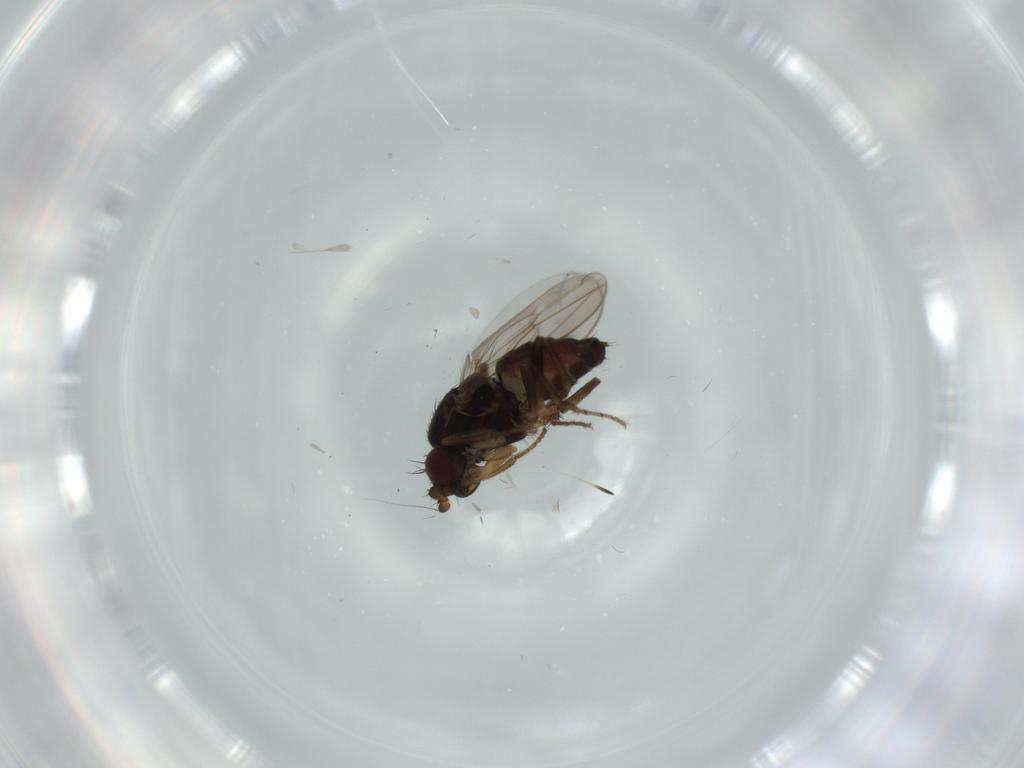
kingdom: Animalia
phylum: Arthropoda
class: Insecta
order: Diptera
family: Sphaeroceridae
